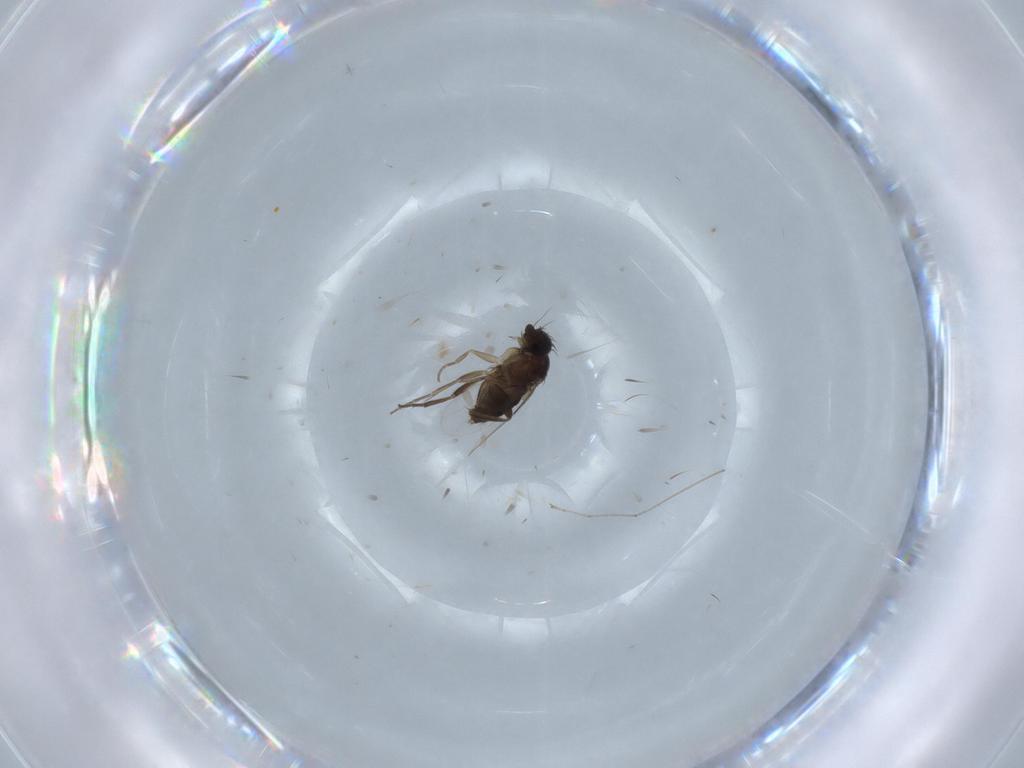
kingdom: Animalia
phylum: Arthropoda
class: Insecta
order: Diptera
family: Phoridae
